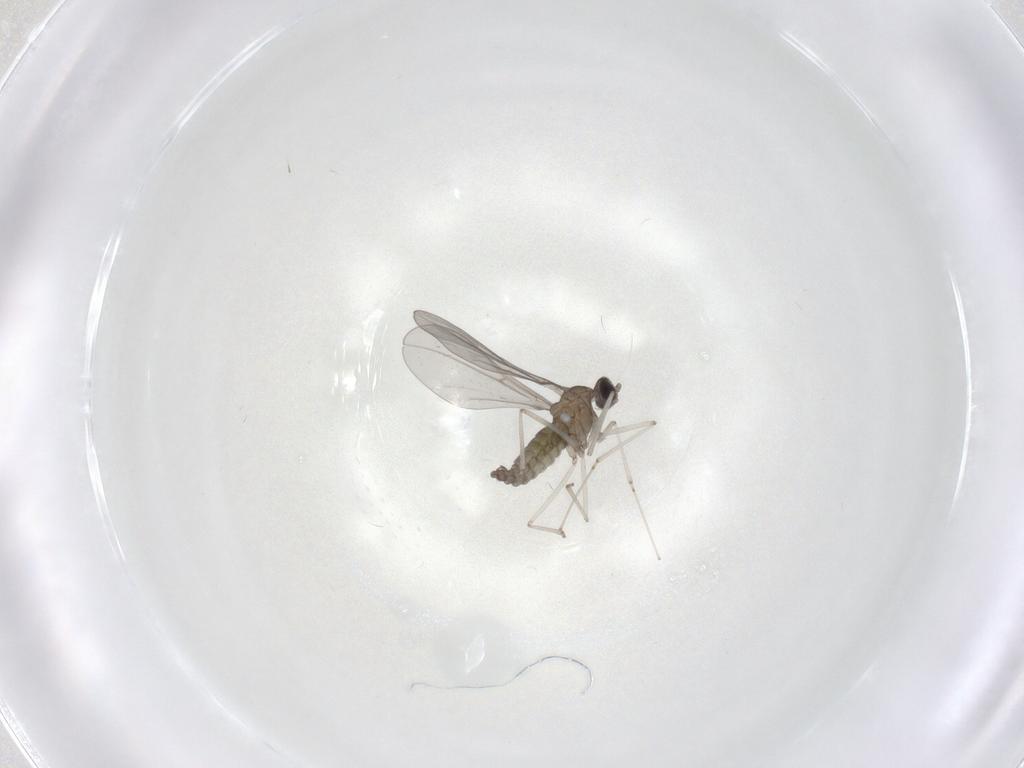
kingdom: Animalia
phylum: Arthropoda
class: Insecta
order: Diptera
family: Cecidomyiidae
